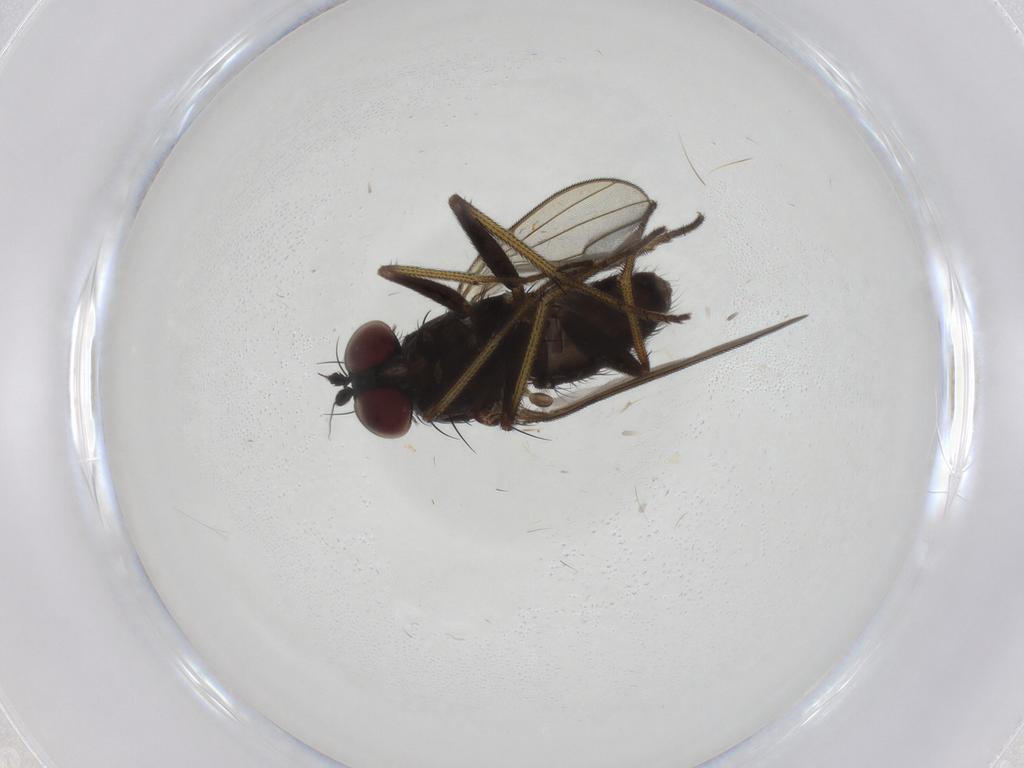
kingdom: Animalia
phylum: Arthropoda
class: Insecta
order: Diptera
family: Dolichopodidae
